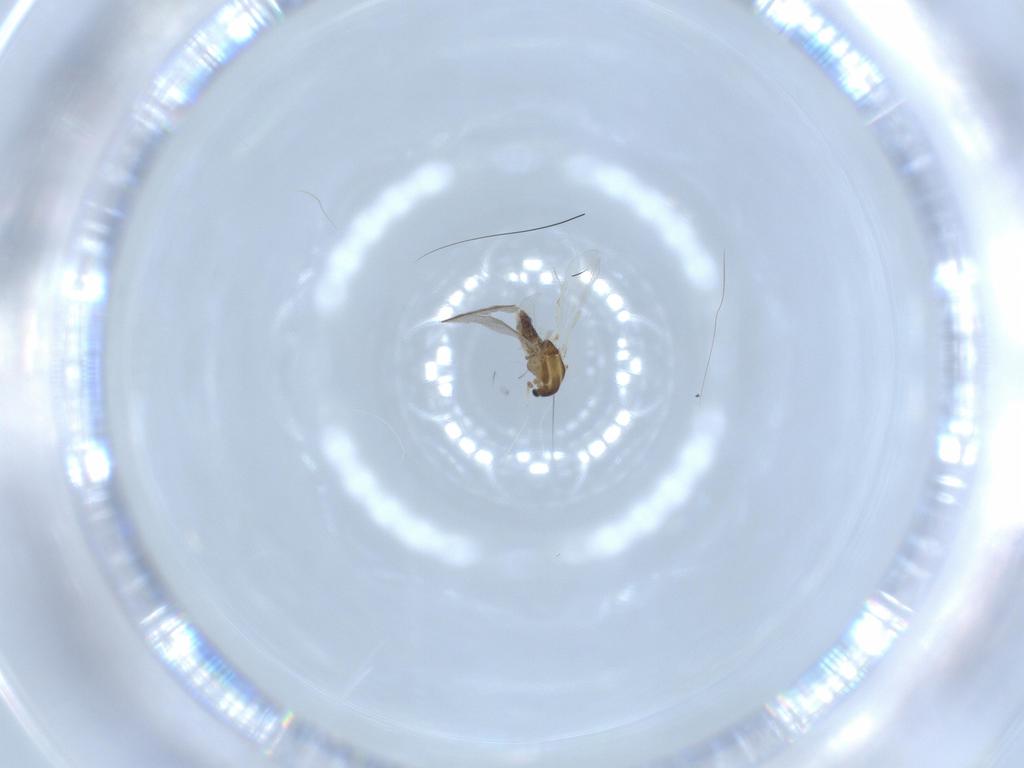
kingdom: Animalia
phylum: Arthropoda
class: Insecta
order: Diptera
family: Chironomidae
